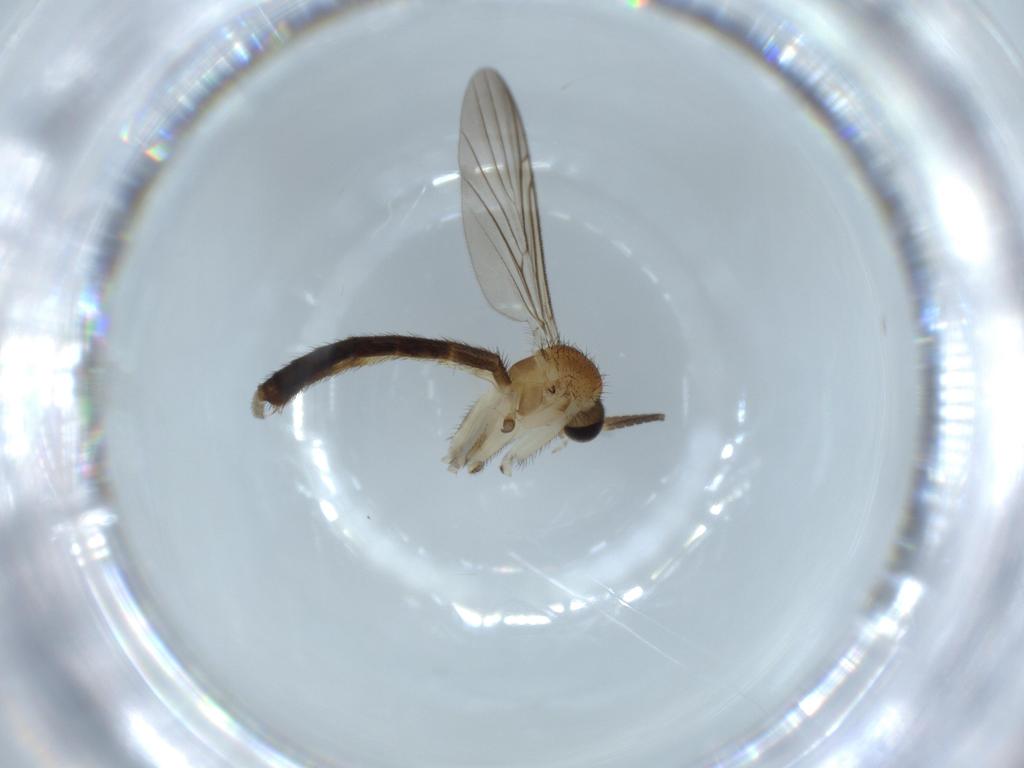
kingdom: Animalia
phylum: Arthropoda
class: Insecta
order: Diptera
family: Keroplatidae
